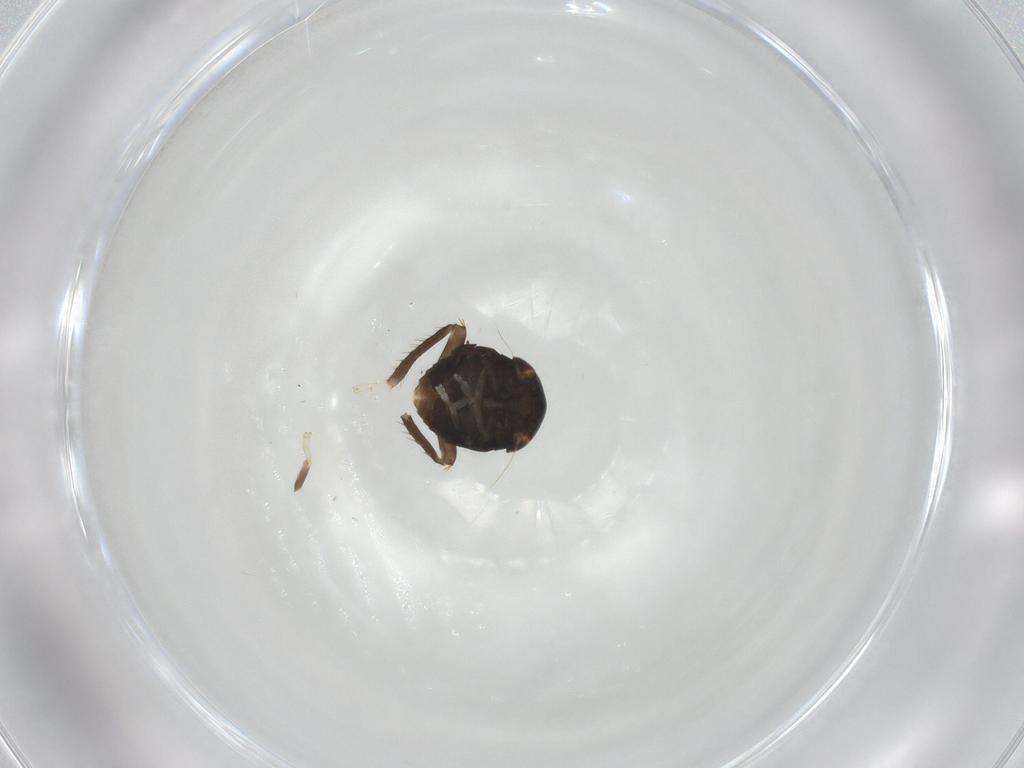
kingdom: Animalia
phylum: Arthropoda
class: Insecta
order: Hemiptera
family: Cicadellidae
